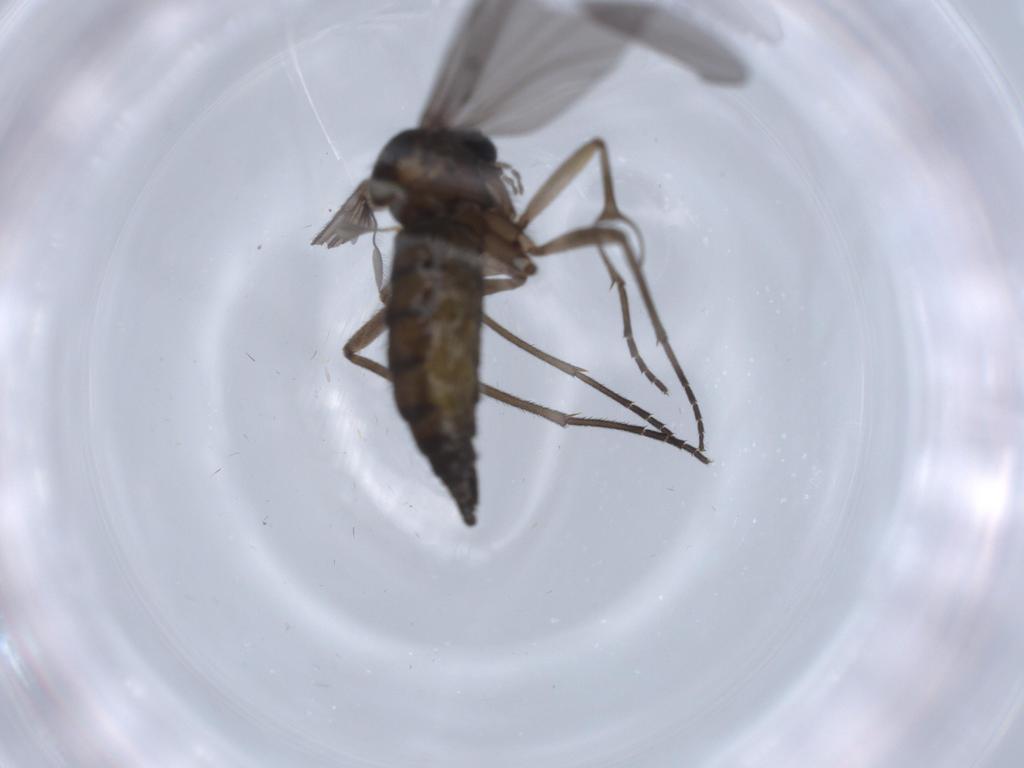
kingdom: Animalia
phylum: Arthropoda
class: Insecta
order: Diptera
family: Sciaridae
